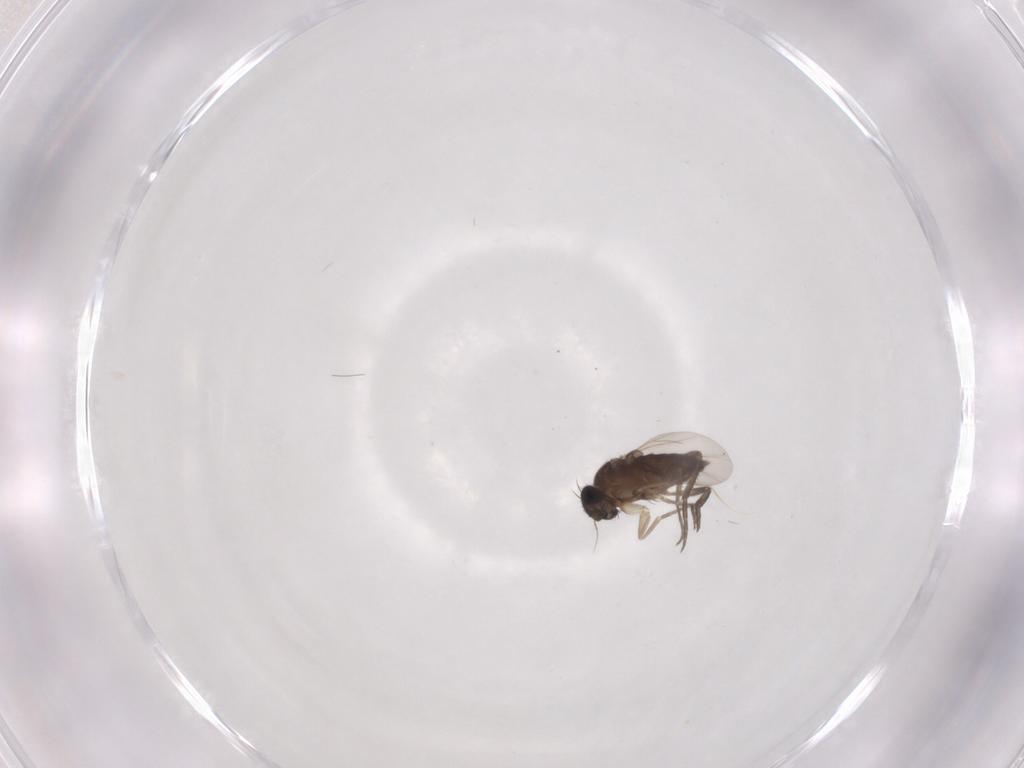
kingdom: Animalia
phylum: Arthropoda
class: Insecta
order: Diptera
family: Phoridae
